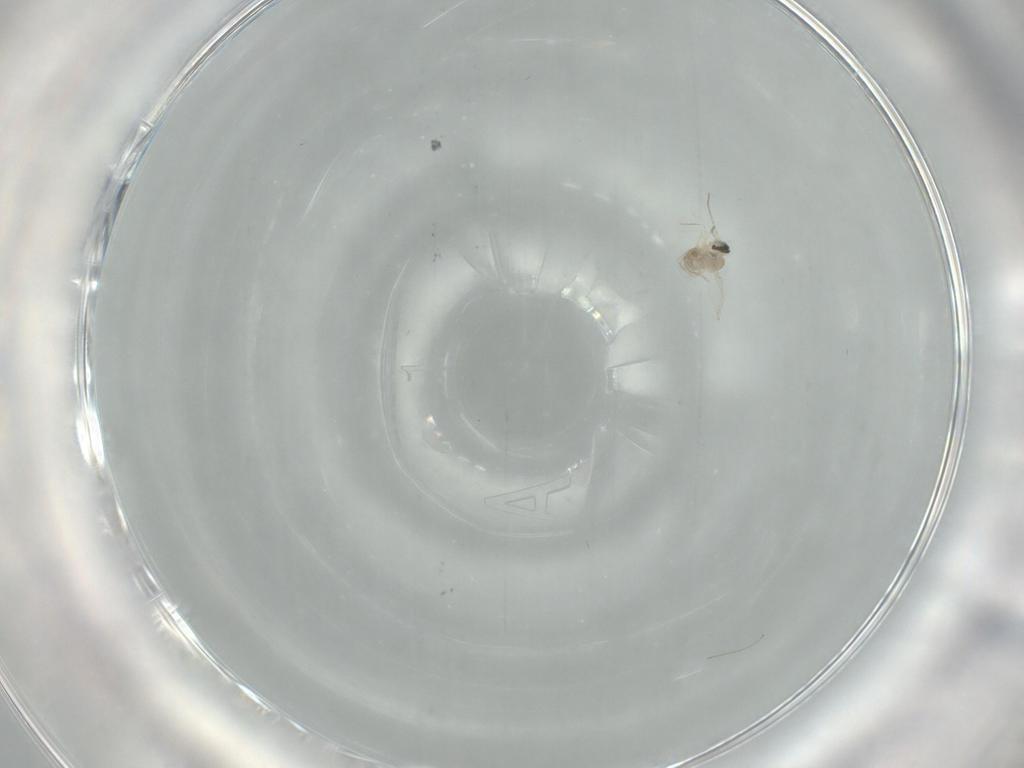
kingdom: Animalia
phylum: Arthropoda
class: Insecta
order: Diptera
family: Cecidomyiidae
